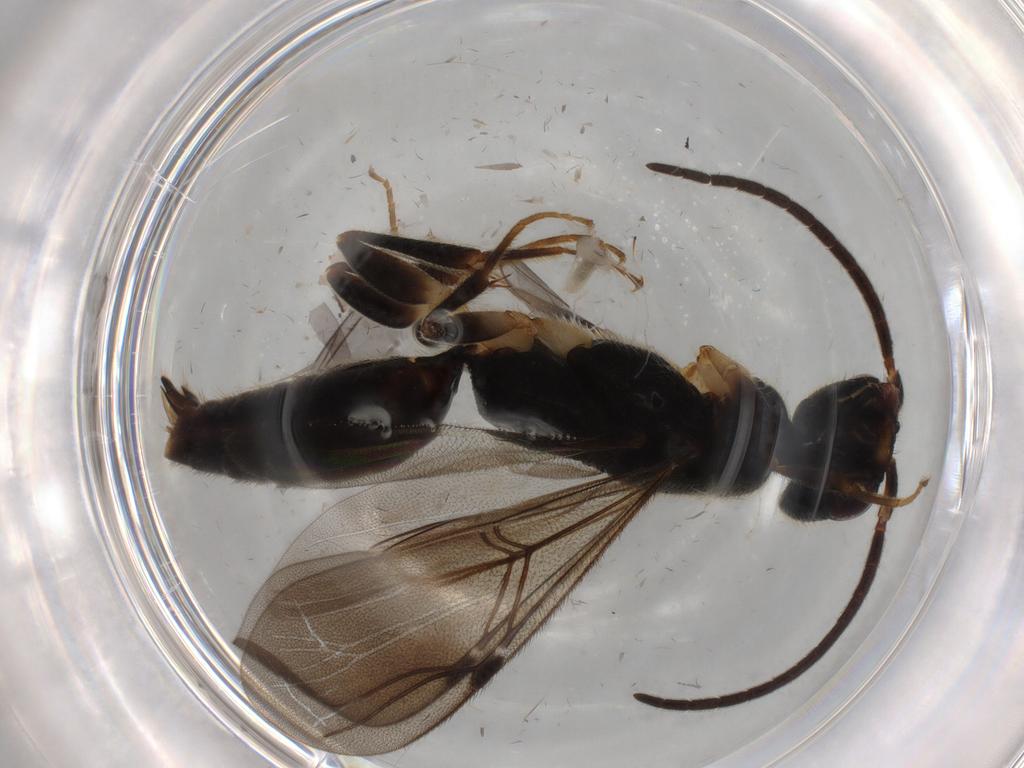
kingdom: Animalia
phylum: Arthropoda
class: Insecta
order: Hymenoptera
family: Bethylidae
